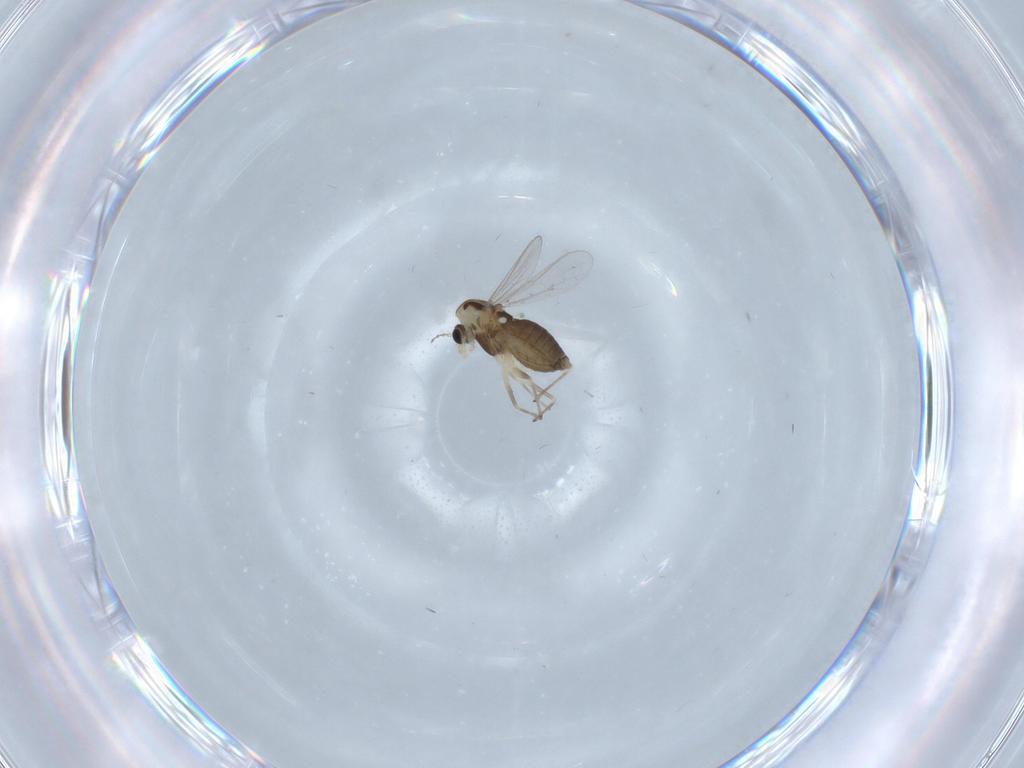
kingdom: Animalia
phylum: Arthropoda
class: Insecta
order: Diptera
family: Chironomidae
